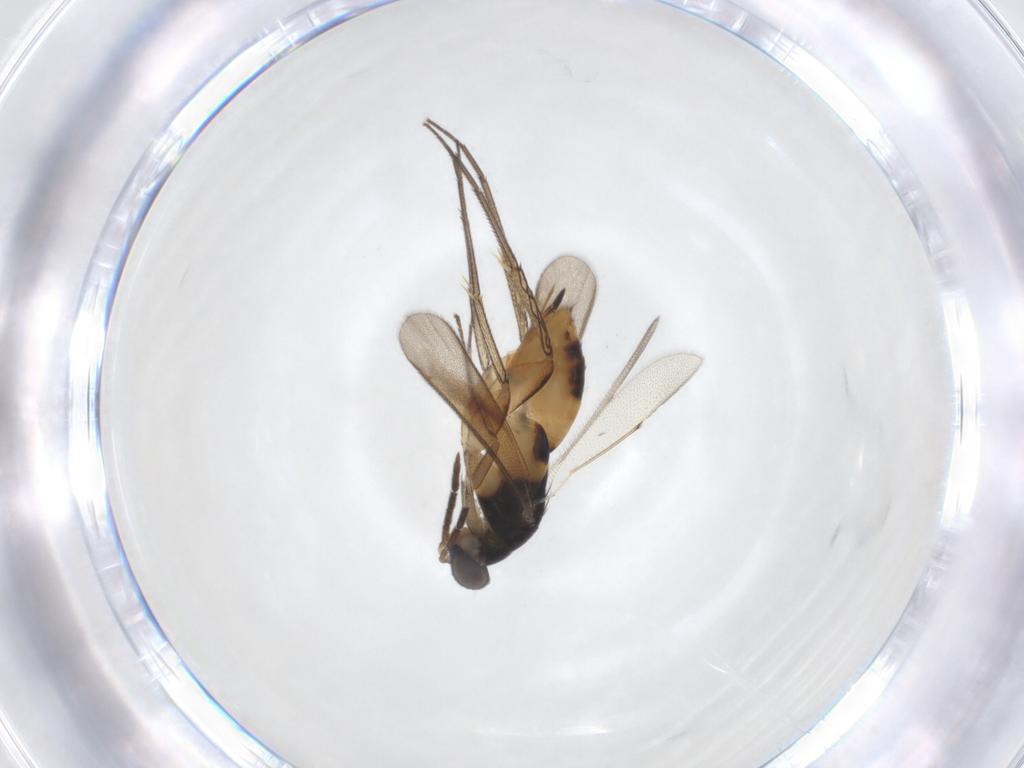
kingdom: Animalia
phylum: Arthropoda
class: Insecta
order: Hymenoptera
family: Eulophidae
